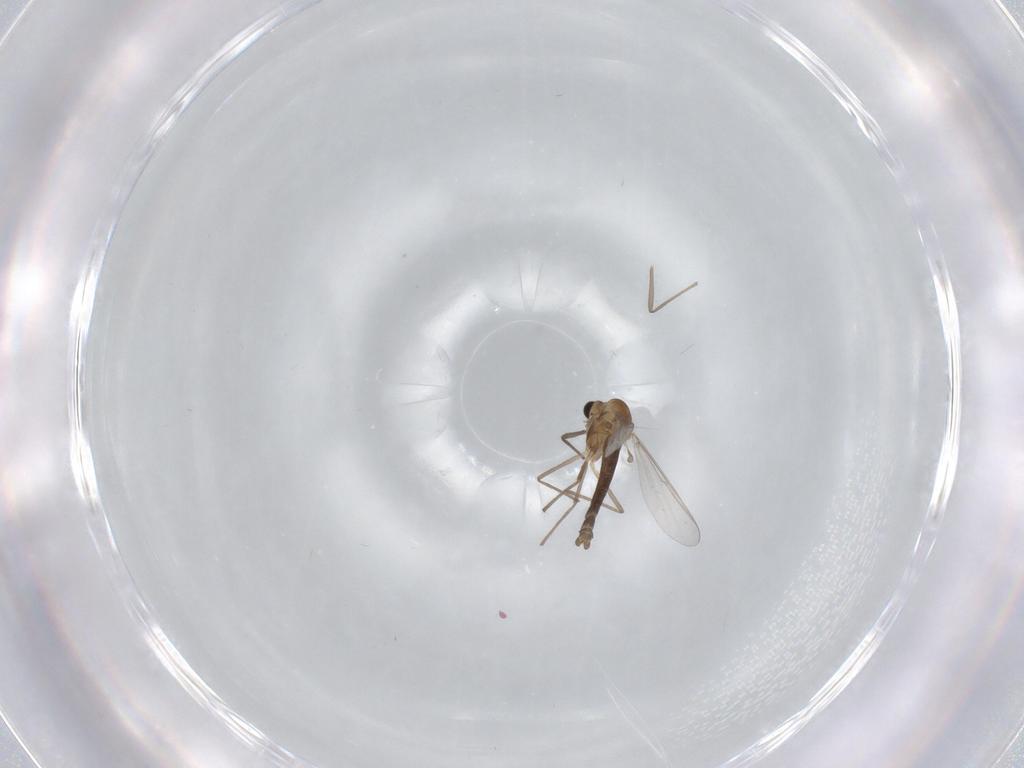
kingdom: Animalia
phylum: Arthropoda
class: Insecta
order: Diptera
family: Chironomidae
